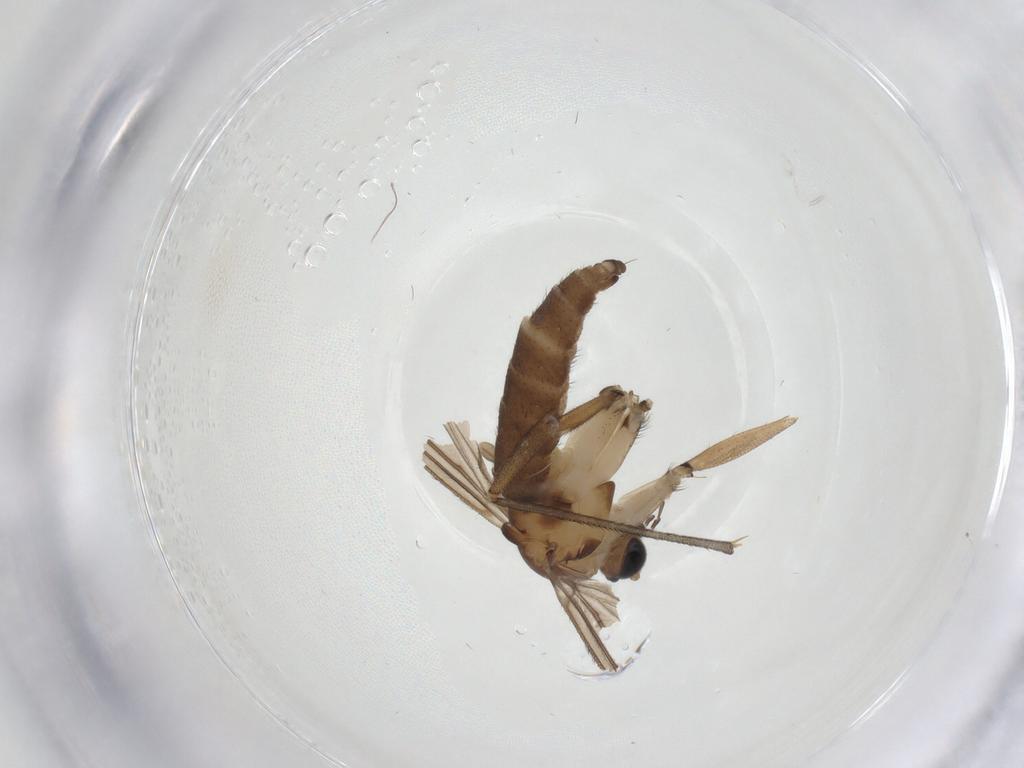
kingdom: Animalia
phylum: Arthropoda
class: Insecta
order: Diptera
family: Sciaridae
